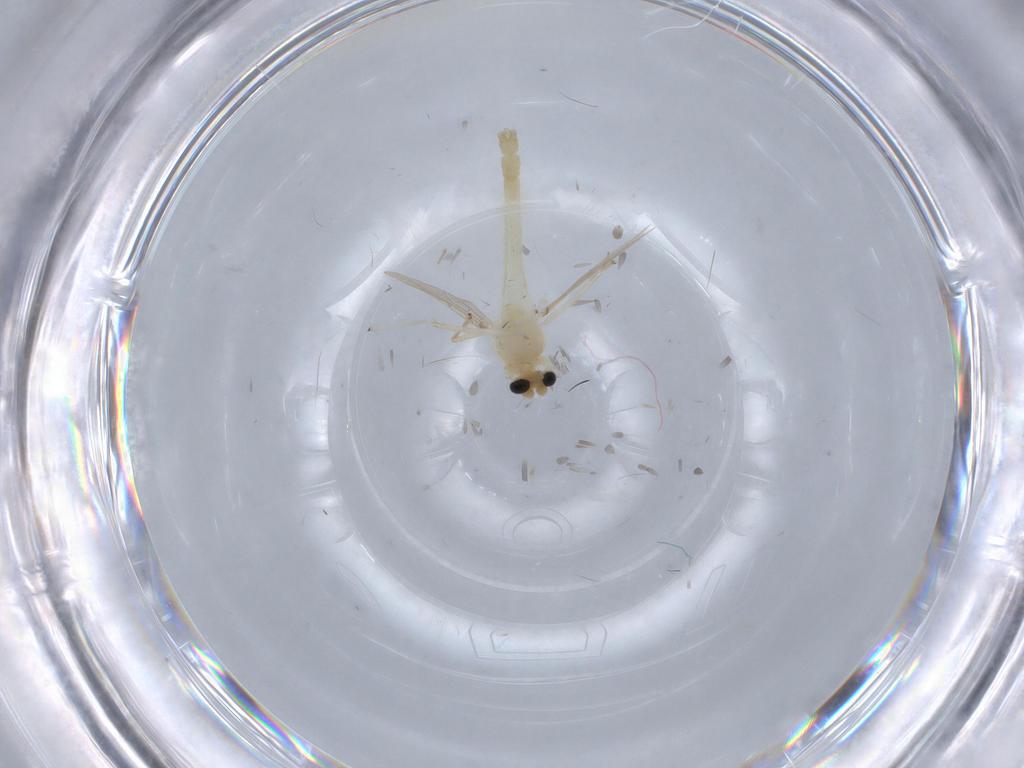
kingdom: Animalia
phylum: Arthropoda
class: Insecta
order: Diptera
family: Chironomidae
